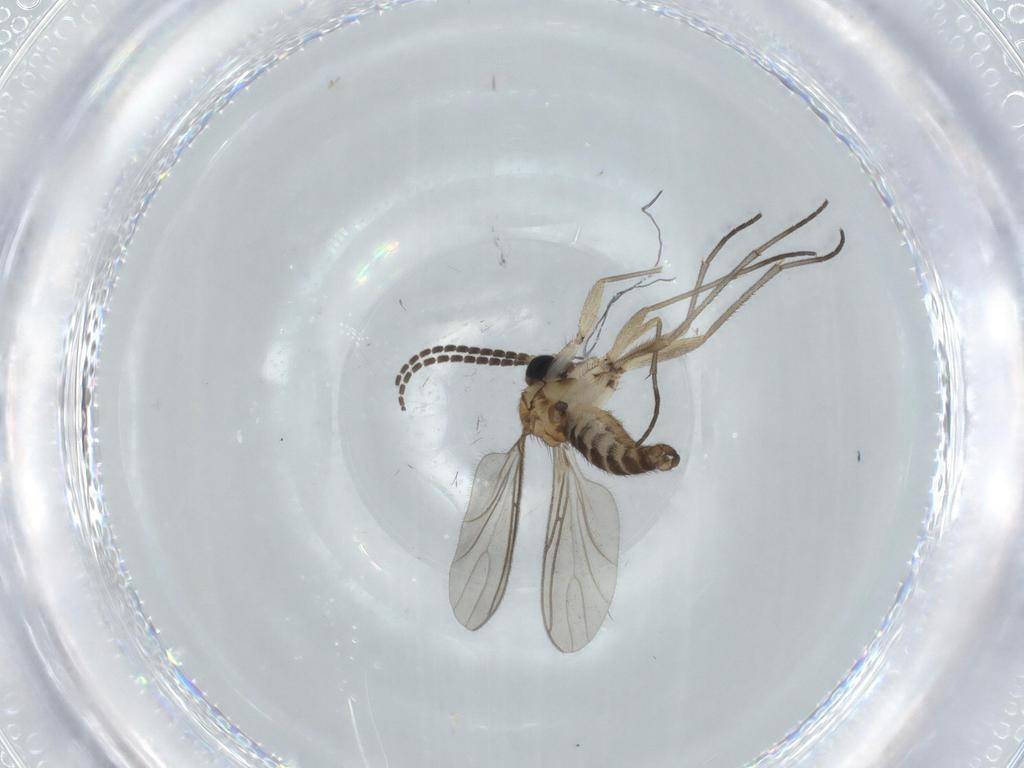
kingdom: Animalia
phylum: Arthropoda
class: Insecta
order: Diptera
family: Sciaridae
